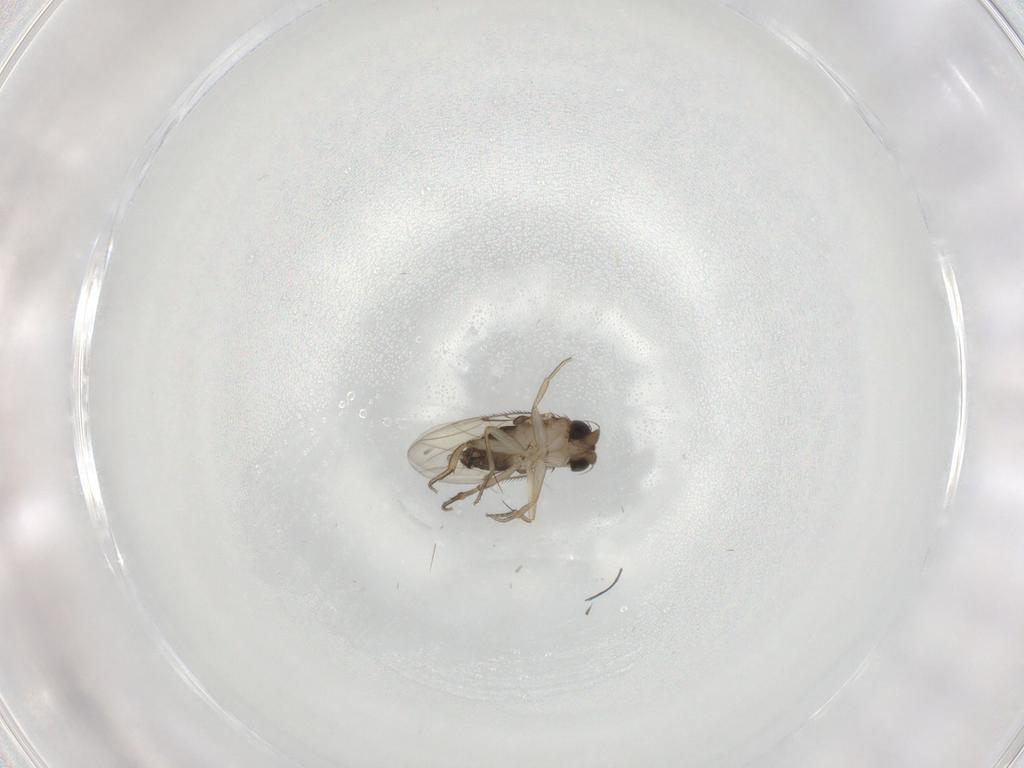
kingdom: Animalia
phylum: Arthropoda
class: Insecta
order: Diptera
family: Phoridae
